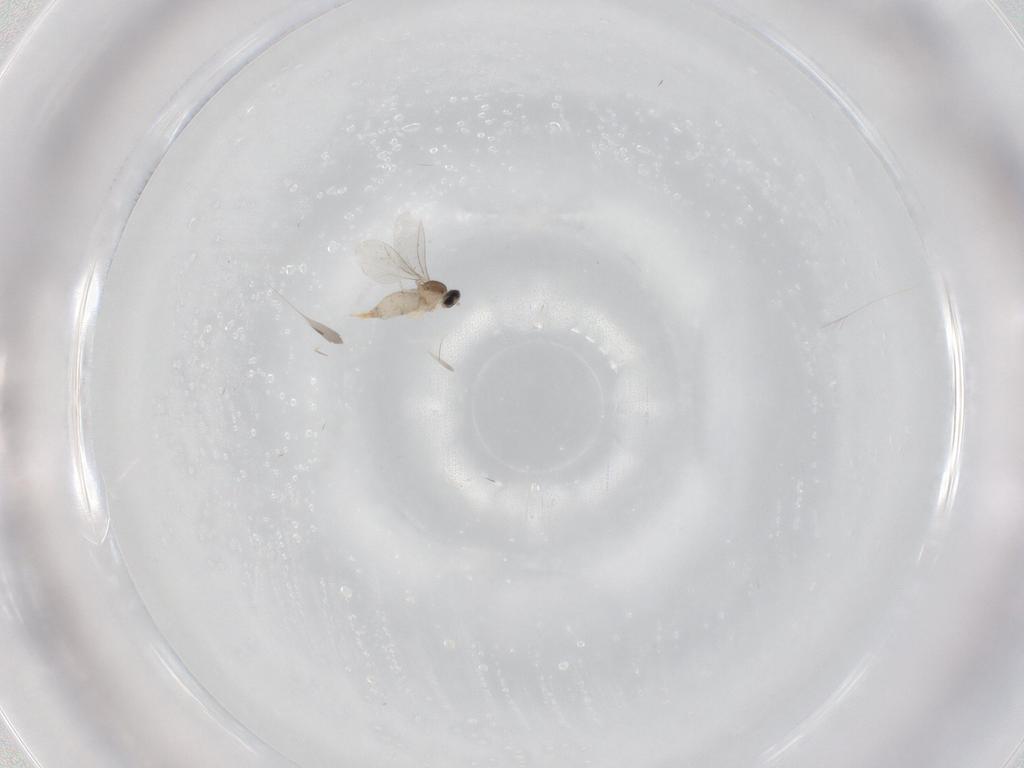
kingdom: Animalia
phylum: Arthropoda
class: Insecta
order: Diptera
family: Cecidomyiidae
